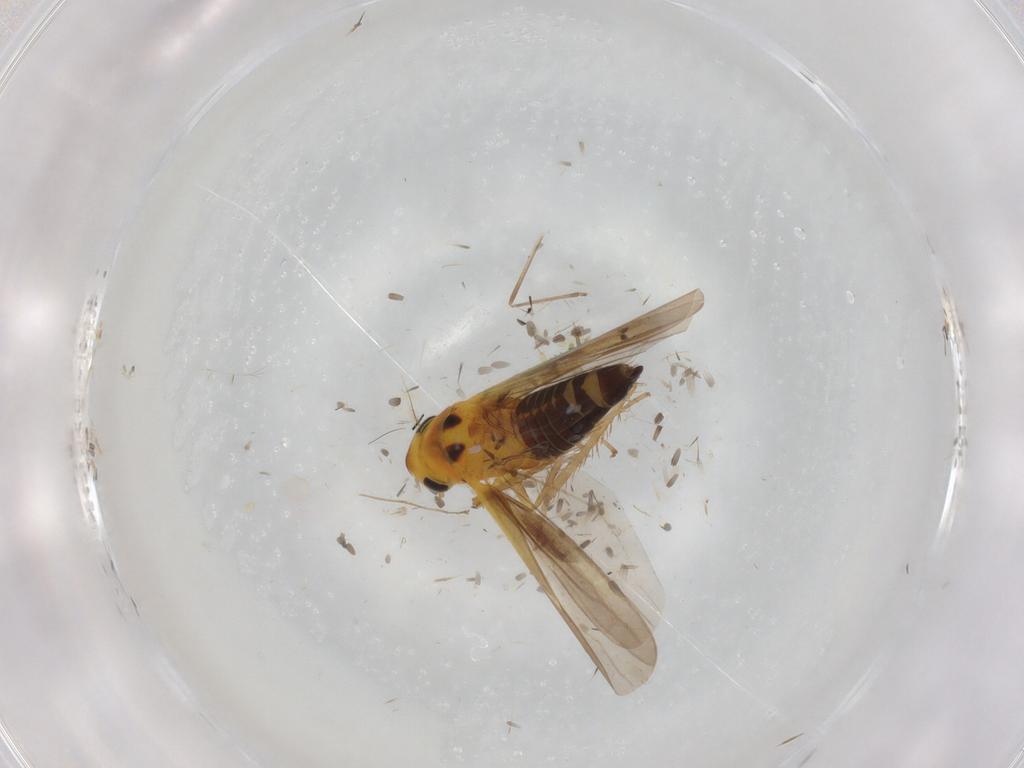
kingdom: Animalia
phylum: Arthropoda
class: Insecta
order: Hemiptera
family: Cicadellidae
